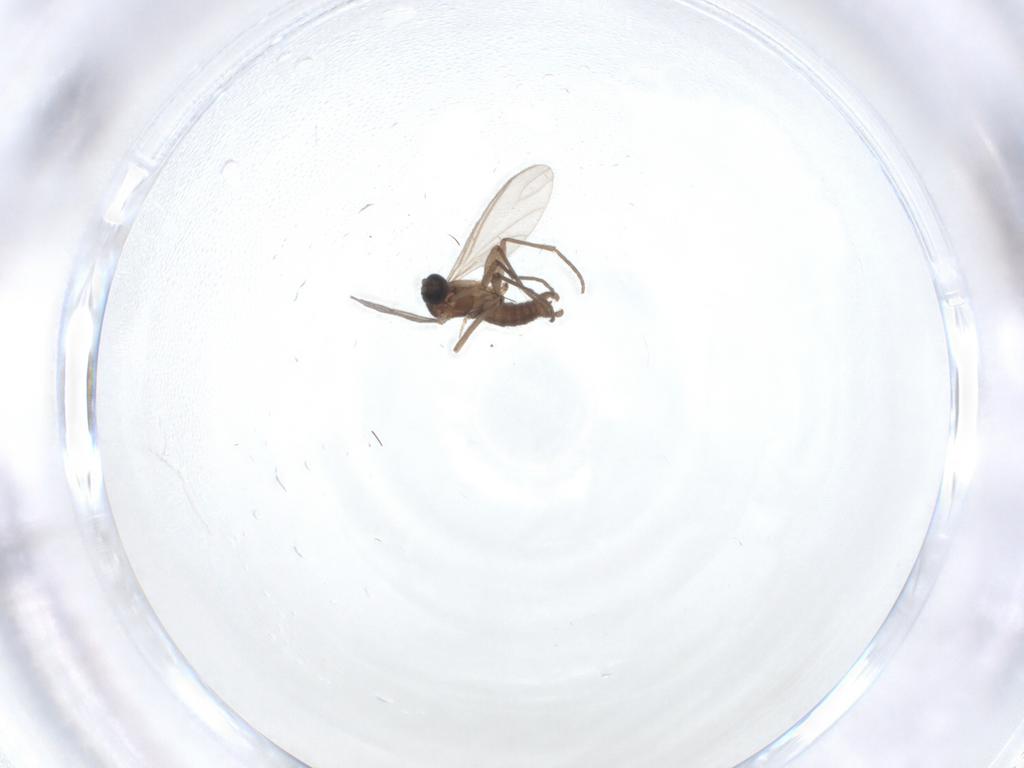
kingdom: Animalia
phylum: Arthropoda
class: Insecta
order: Diptera
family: Sciaridae
